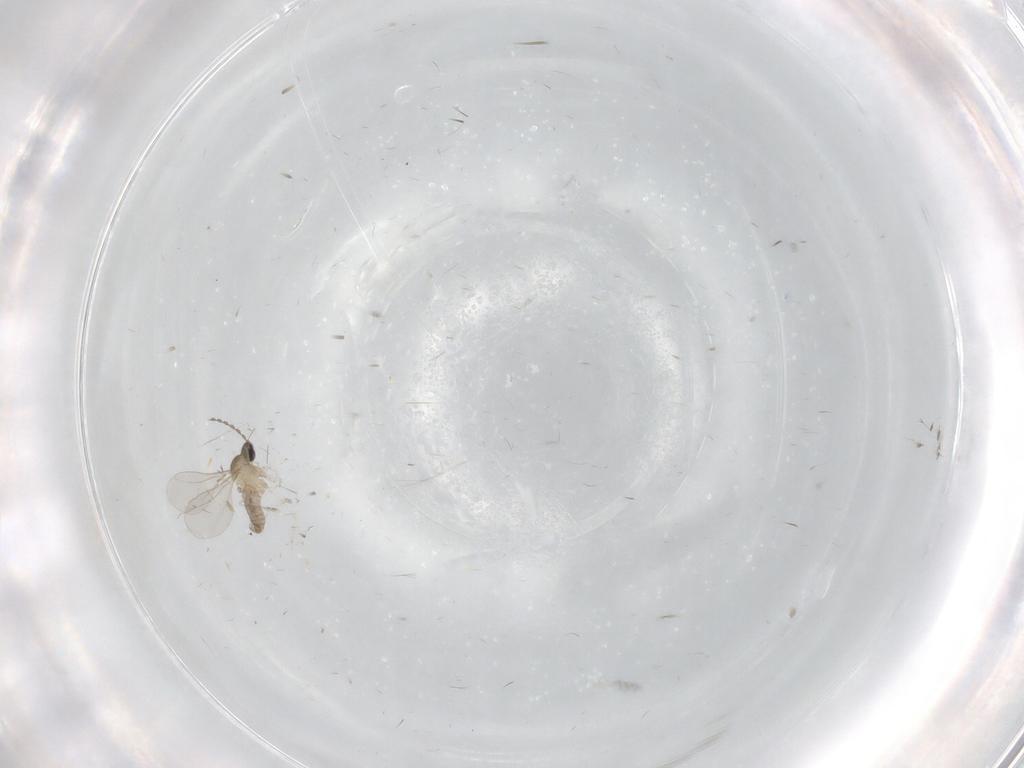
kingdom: Animalia
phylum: Arthropoda
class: Insecta
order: Diptera
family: Cecidomyiidae
